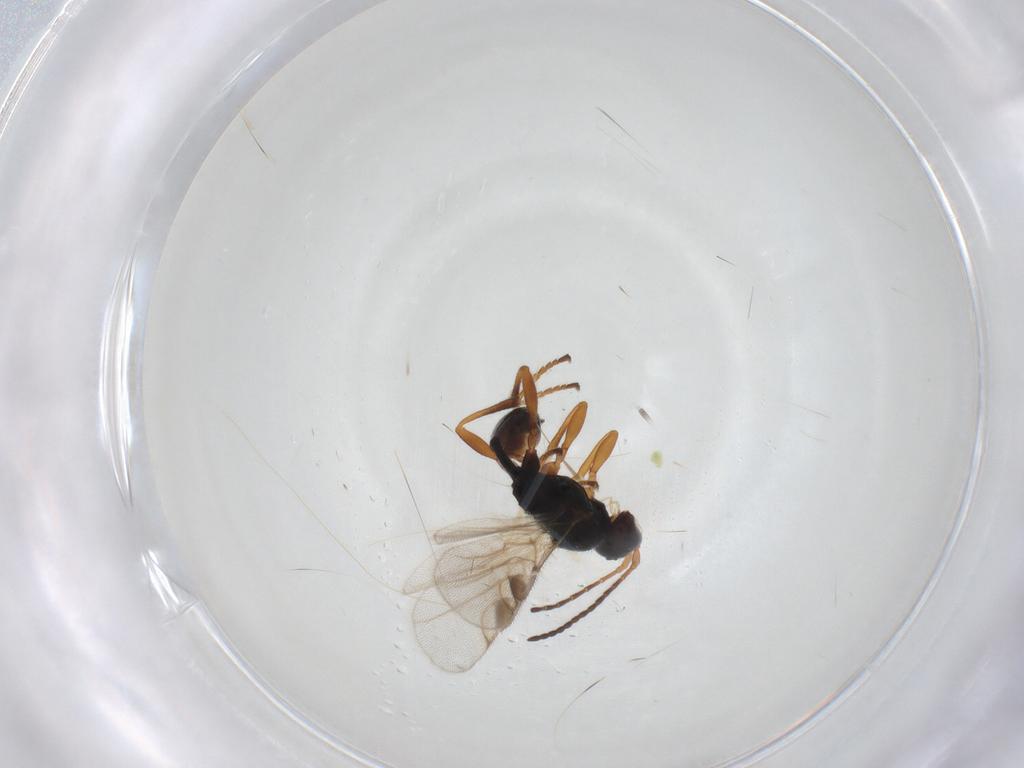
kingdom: Animalia
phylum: Arthropoda
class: Insecta
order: Hymenoptera
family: Braconidae
